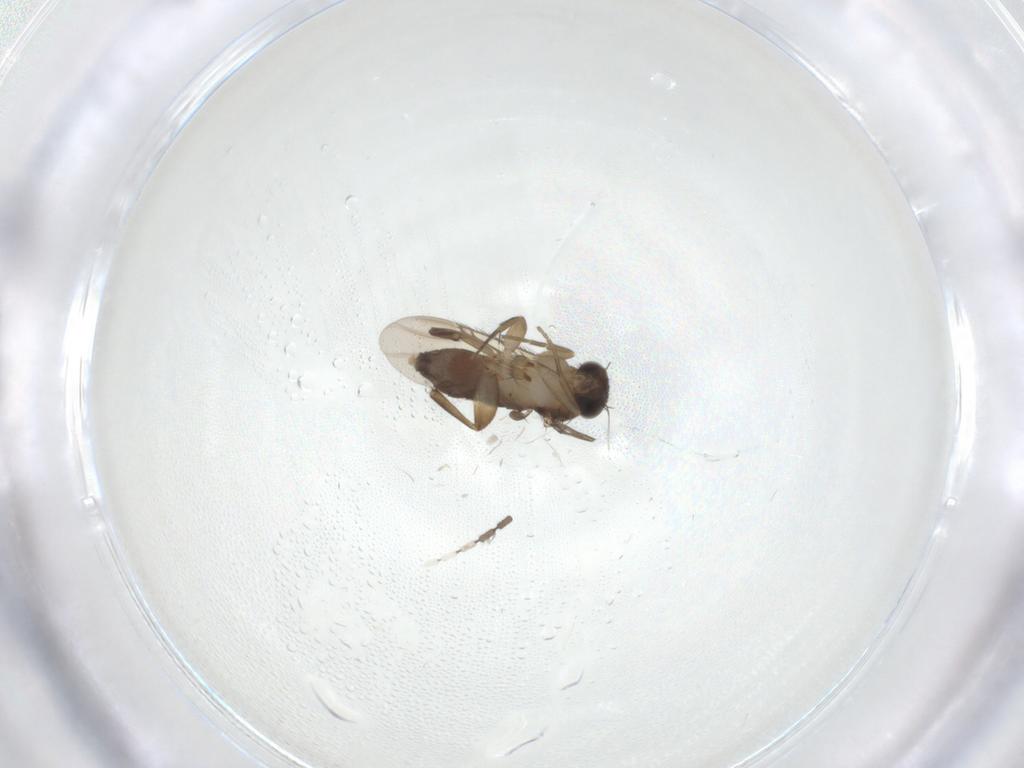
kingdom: Animalia
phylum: Arthropoda
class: Insecta
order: Diptera
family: Phoridae
